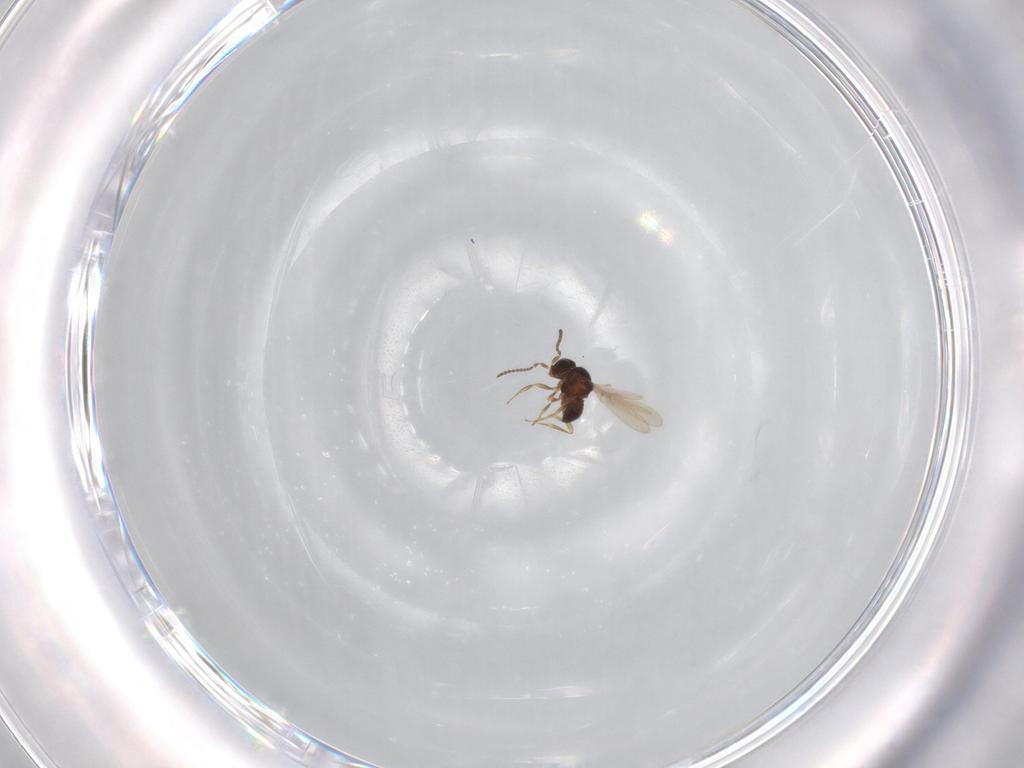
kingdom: Animalia
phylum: Arthropoda
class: Insecta
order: Hymenoptera
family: Scelionidae
